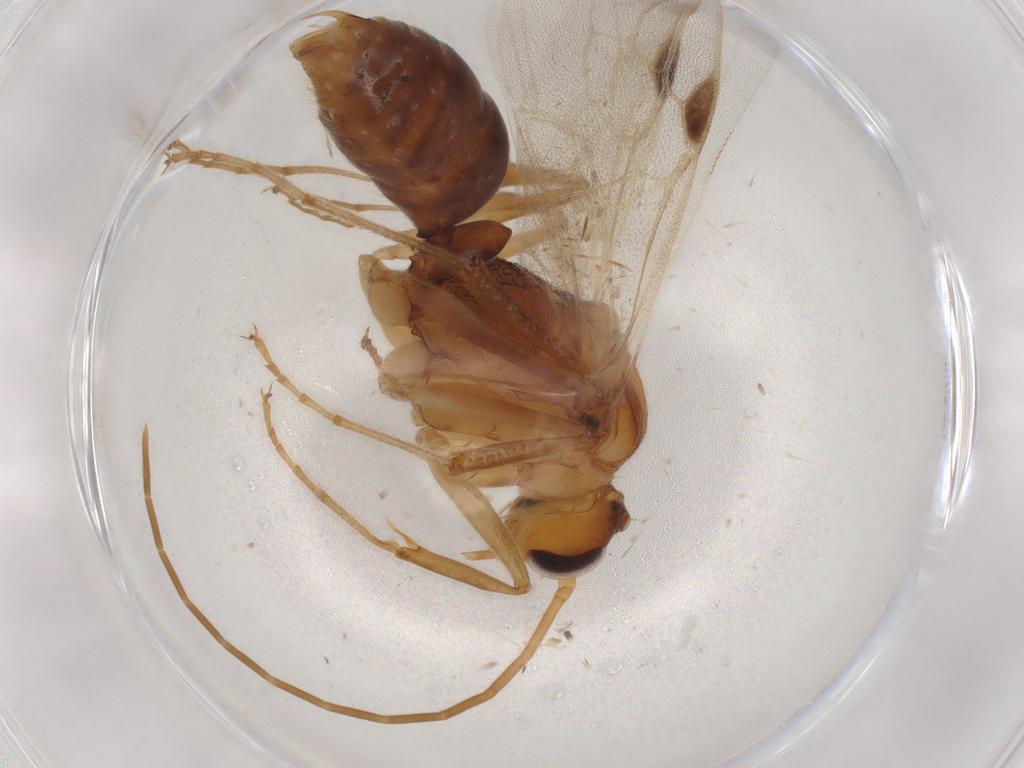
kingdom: Animalia
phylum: Arthropoda
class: Insecta
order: Hymenoptera
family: Formicidae
